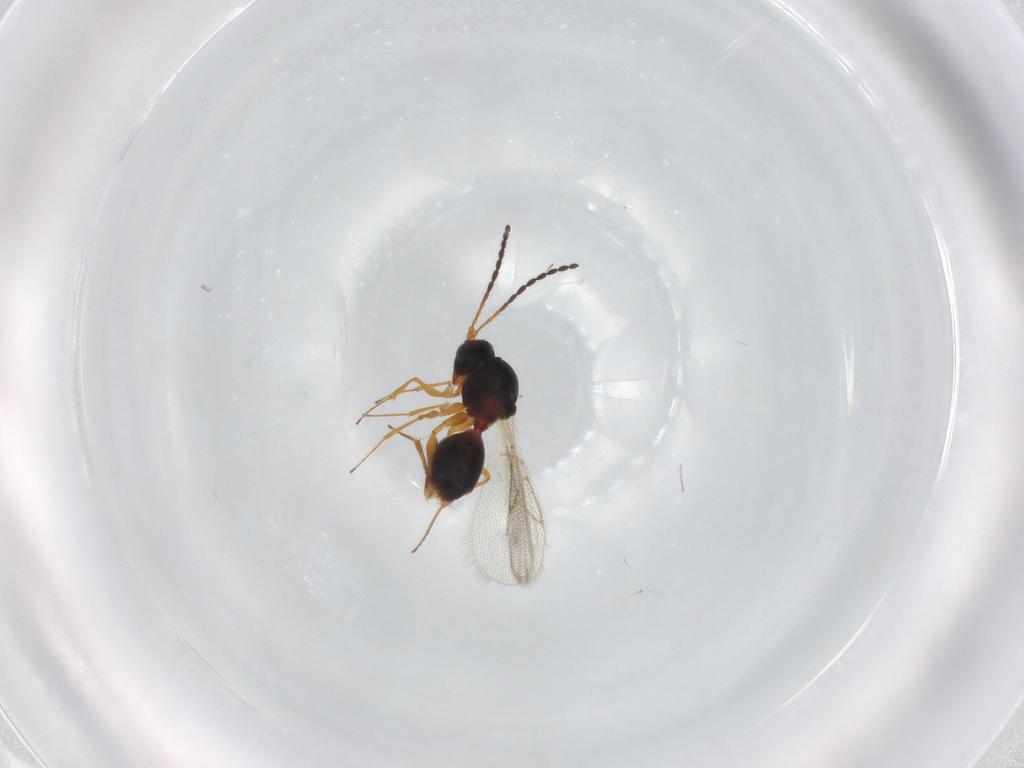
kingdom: Animalia
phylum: Arthropoda
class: Insecta
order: Hymenoptera
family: Figitidae
